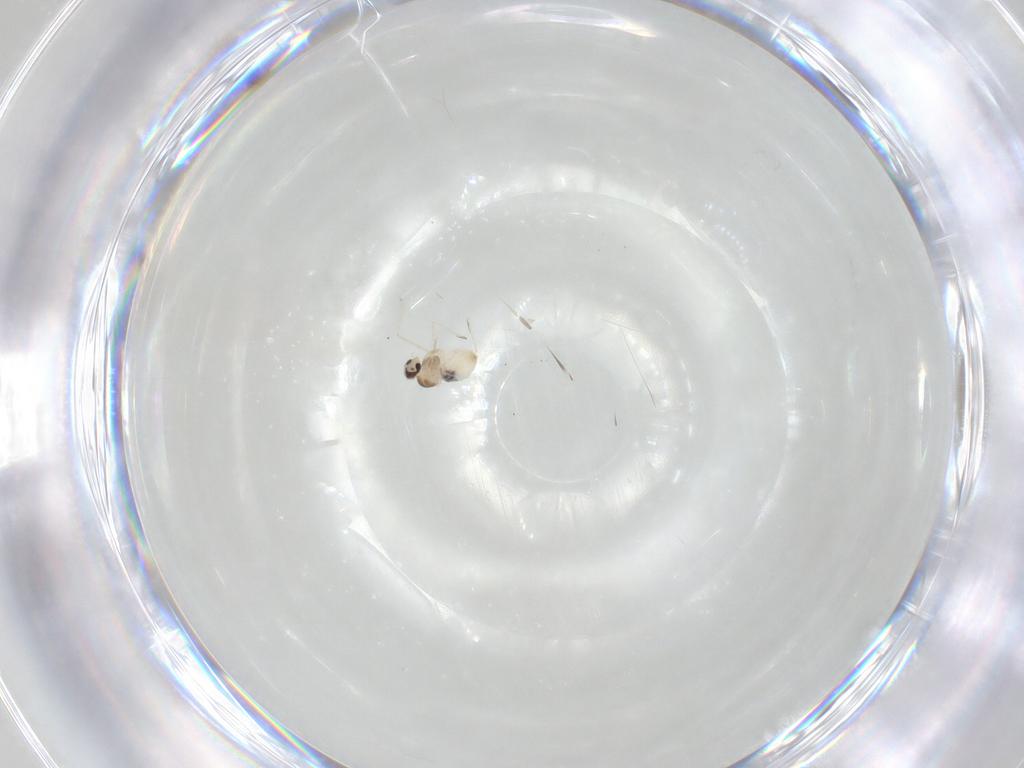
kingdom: Animalia
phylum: Arthropoda
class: Insecta
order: Diptera
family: Cecidomyiidae
